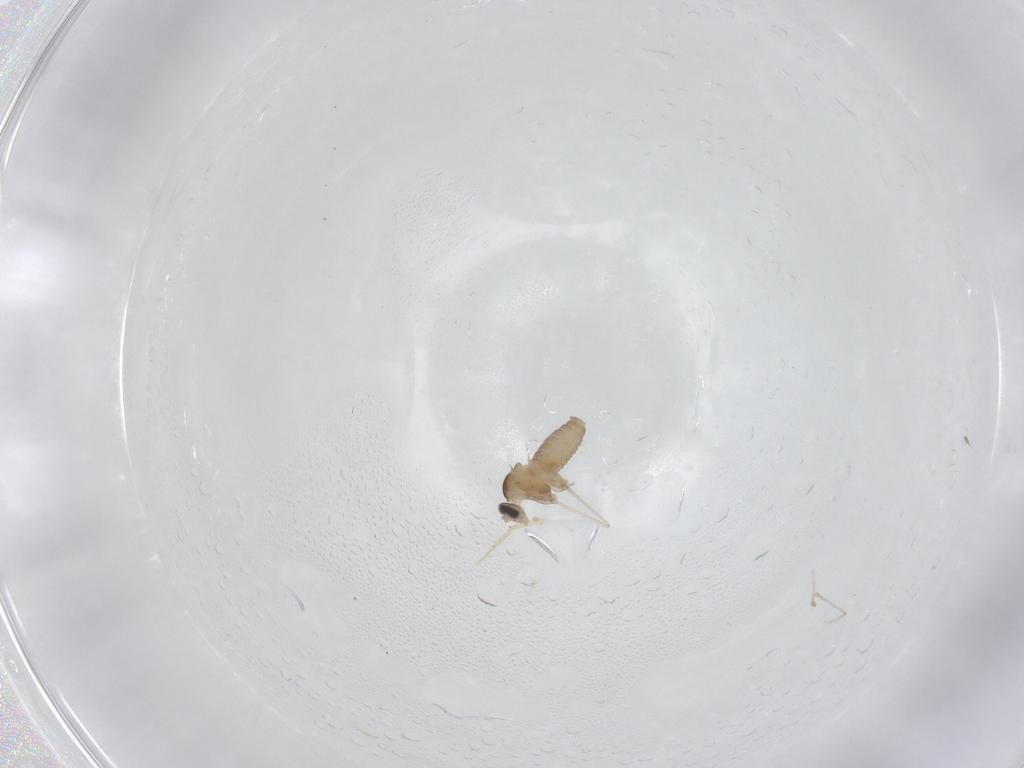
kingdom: Animalia
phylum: Arthropoda
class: Insecta
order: Diptera
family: Cecidomyiidae
